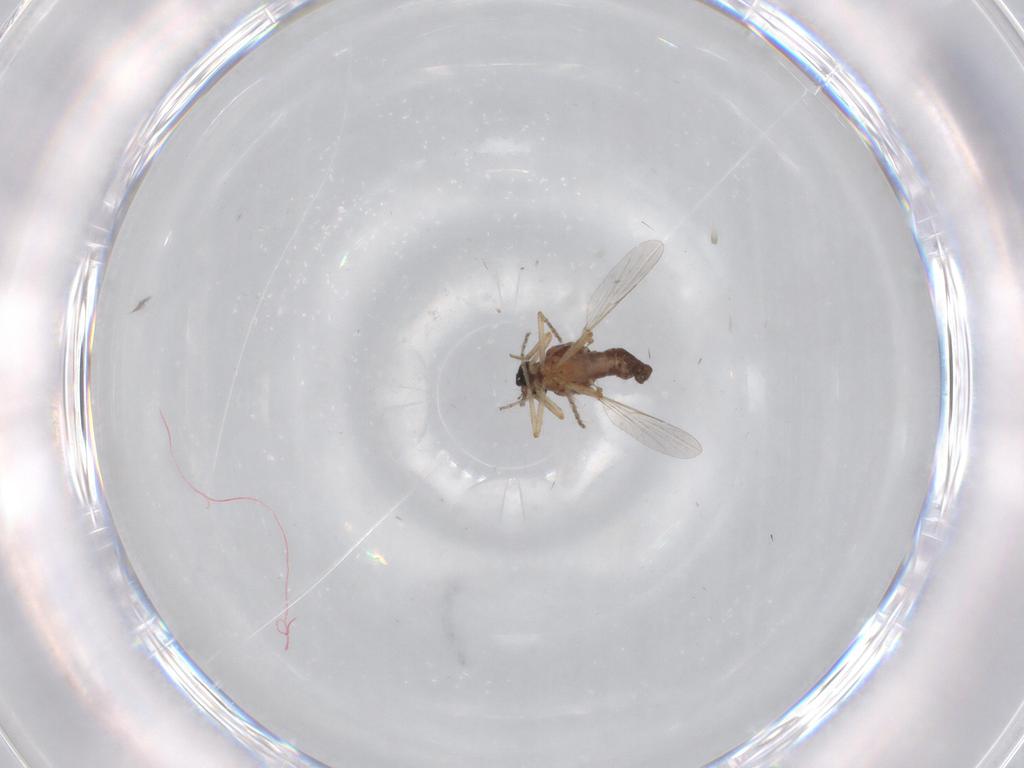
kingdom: Animalia
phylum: Arthropoda
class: Insecta
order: Diptera
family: Ceratopogonidae
